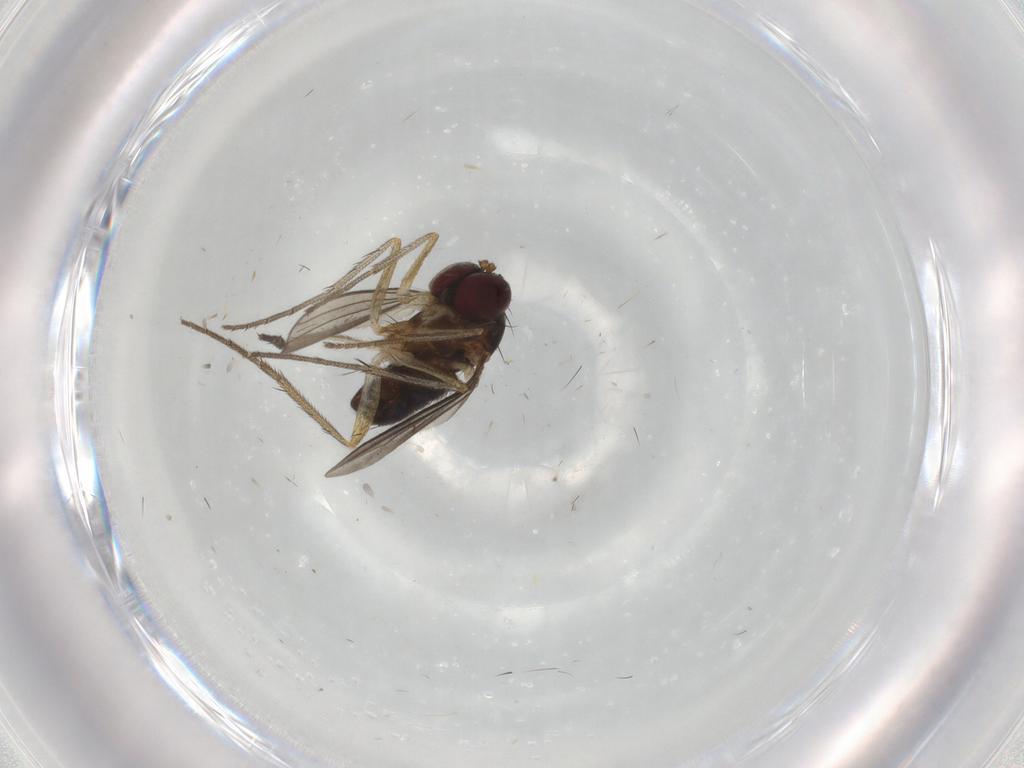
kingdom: Animalia
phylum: Arthropoda
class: Insecta
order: Diptera
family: Dolichopodidae
